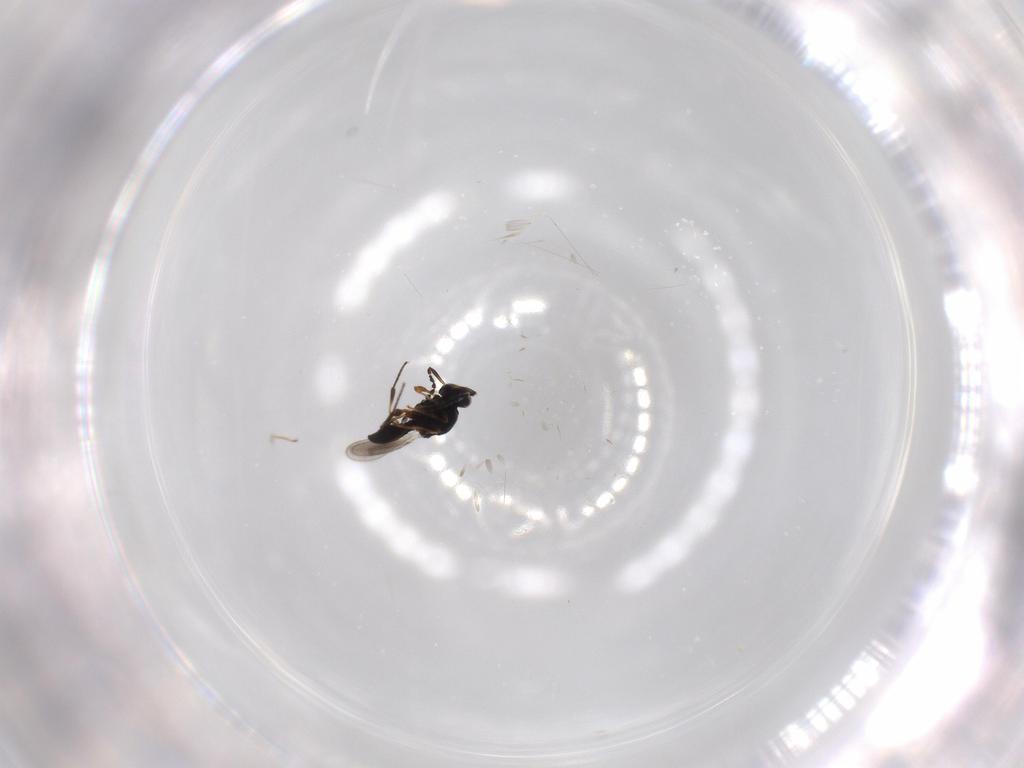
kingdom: Animalia
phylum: Arthropoda
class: Insecta
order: Hymenoptera
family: Platygastridae
